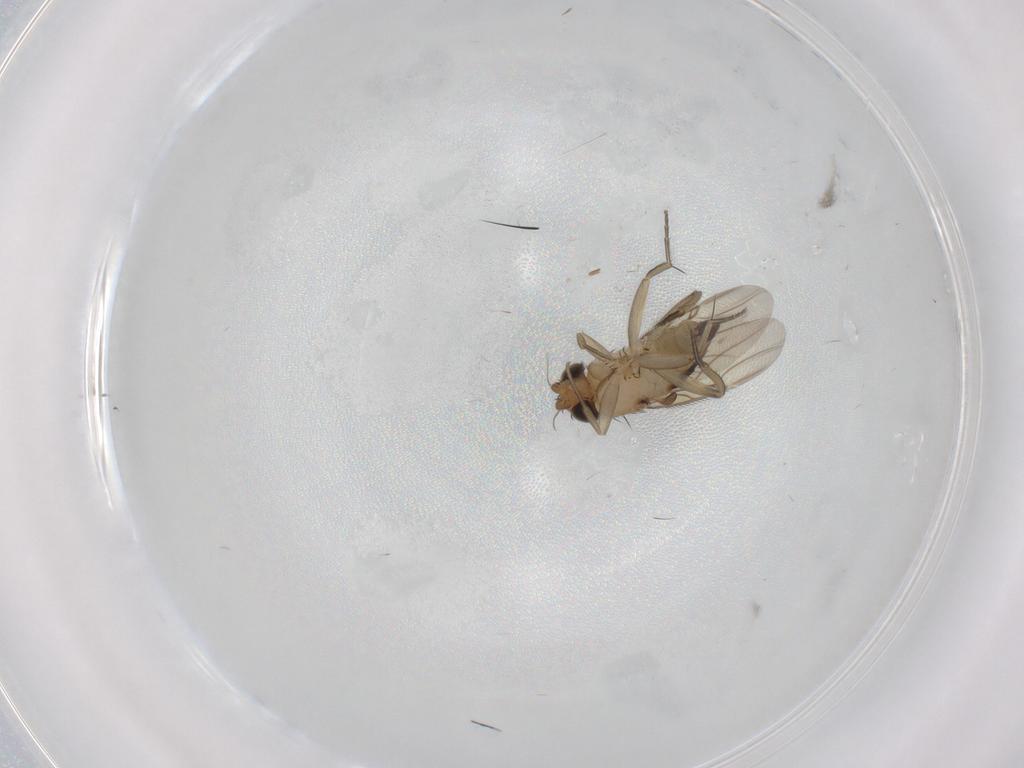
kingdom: Animalia
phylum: Arthropoda
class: Insecta
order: Diptera
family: Phoridae
